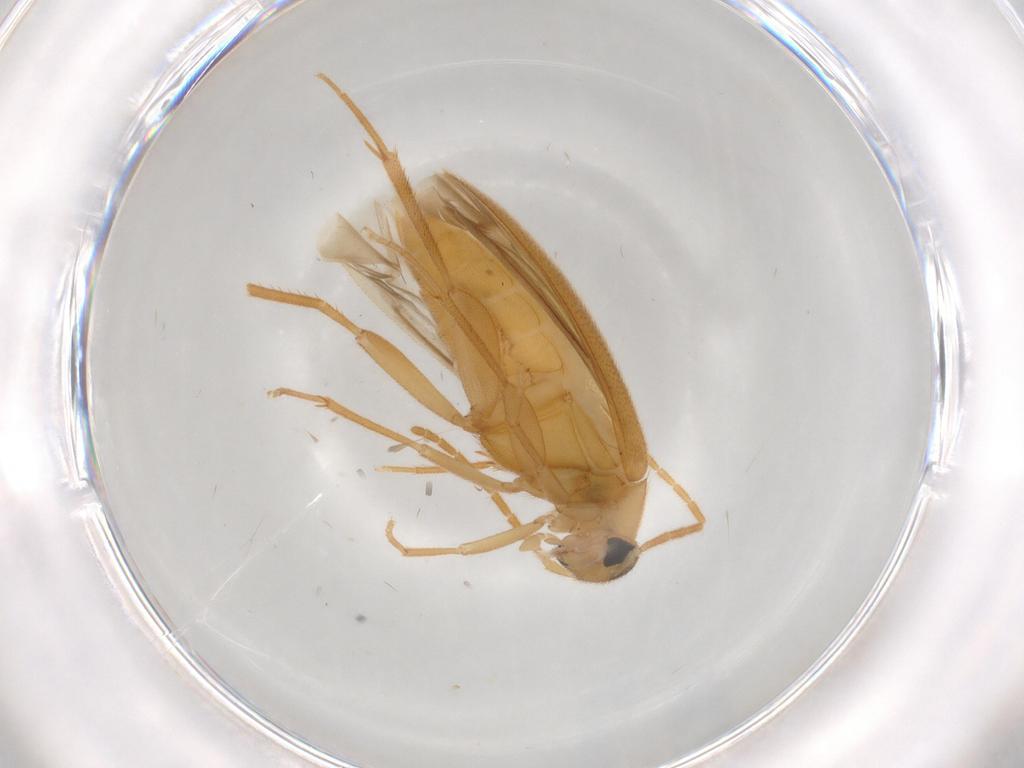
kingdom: Animalia
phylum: Arthropoda
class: Insecta
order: Coleoptera
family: Scraptiidae
